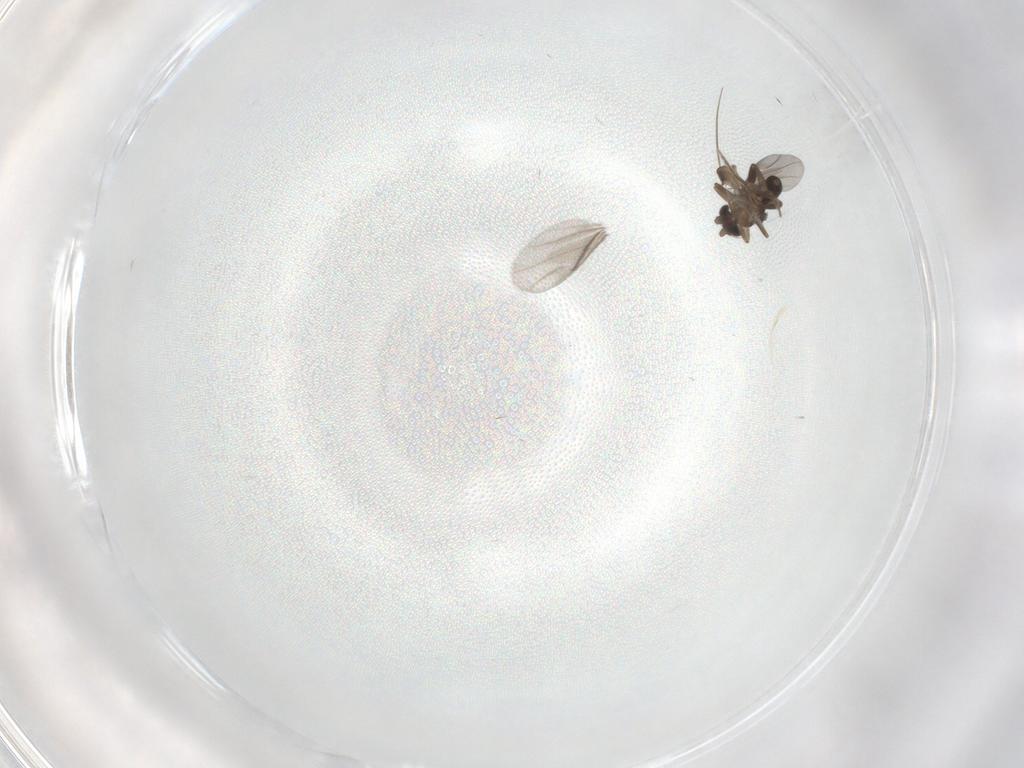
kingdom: Animalia
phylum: Arthropoda
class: Insecta
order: Diptera
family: Cecidomyiidae
